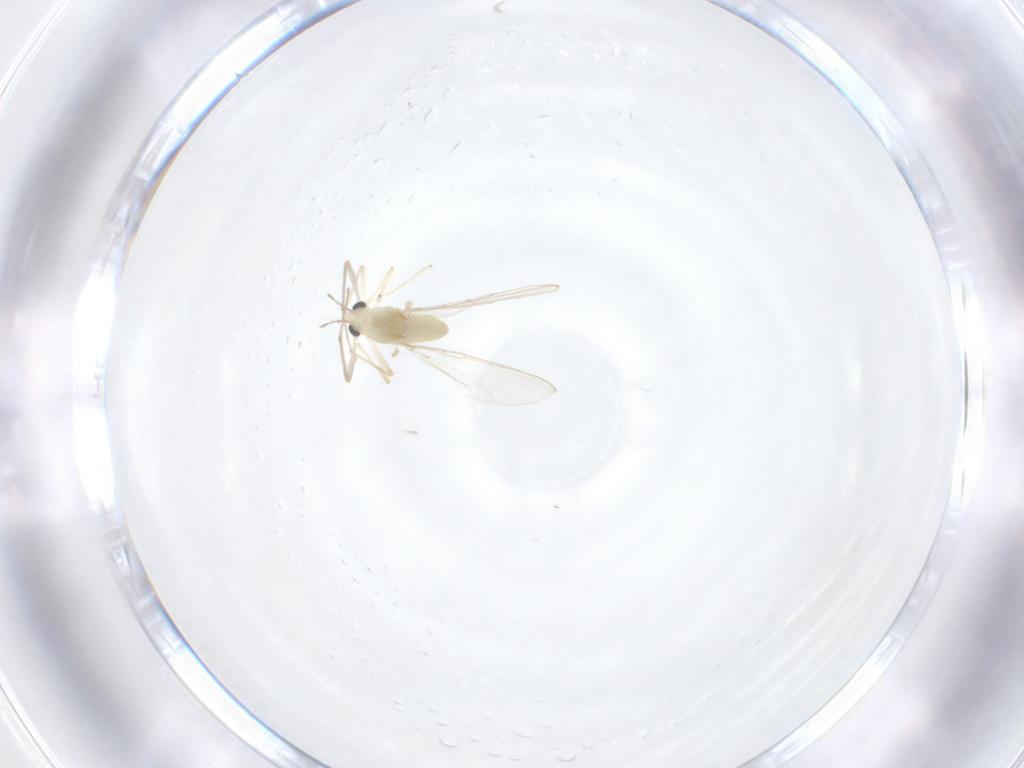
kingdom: Animalia
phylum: Arthropoda
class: Insecta
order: Diptera
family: Chironomidae
